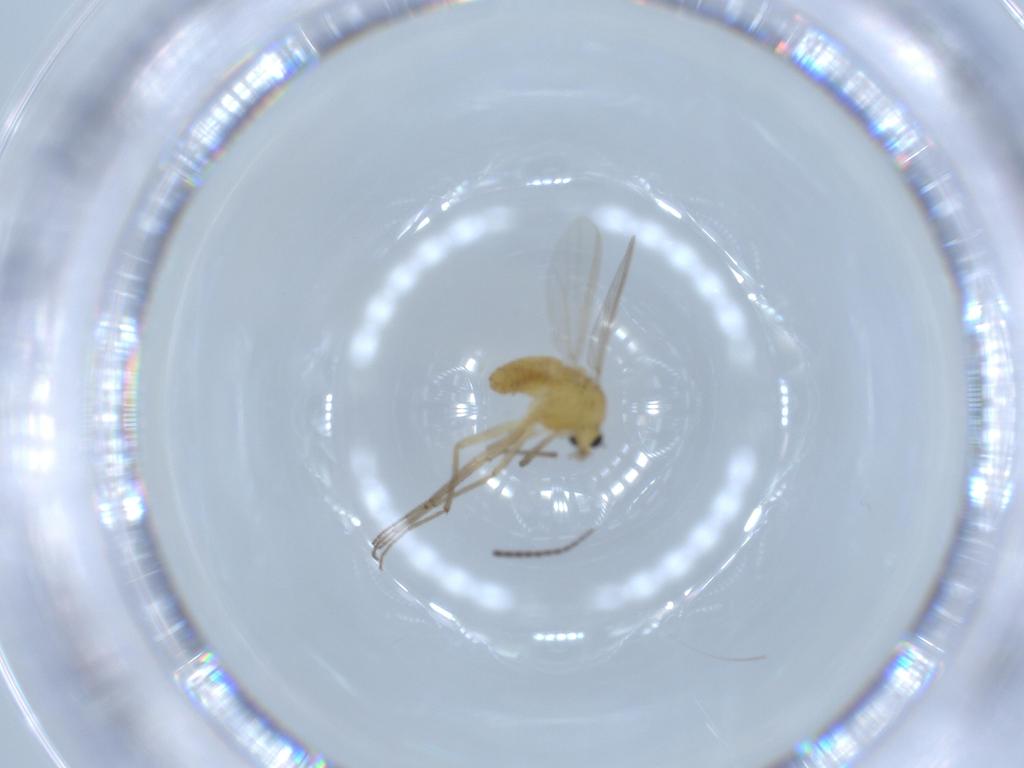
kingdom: Animalia
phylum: Arthropoda
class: Insecta
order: Diptera
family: Chironomidae
